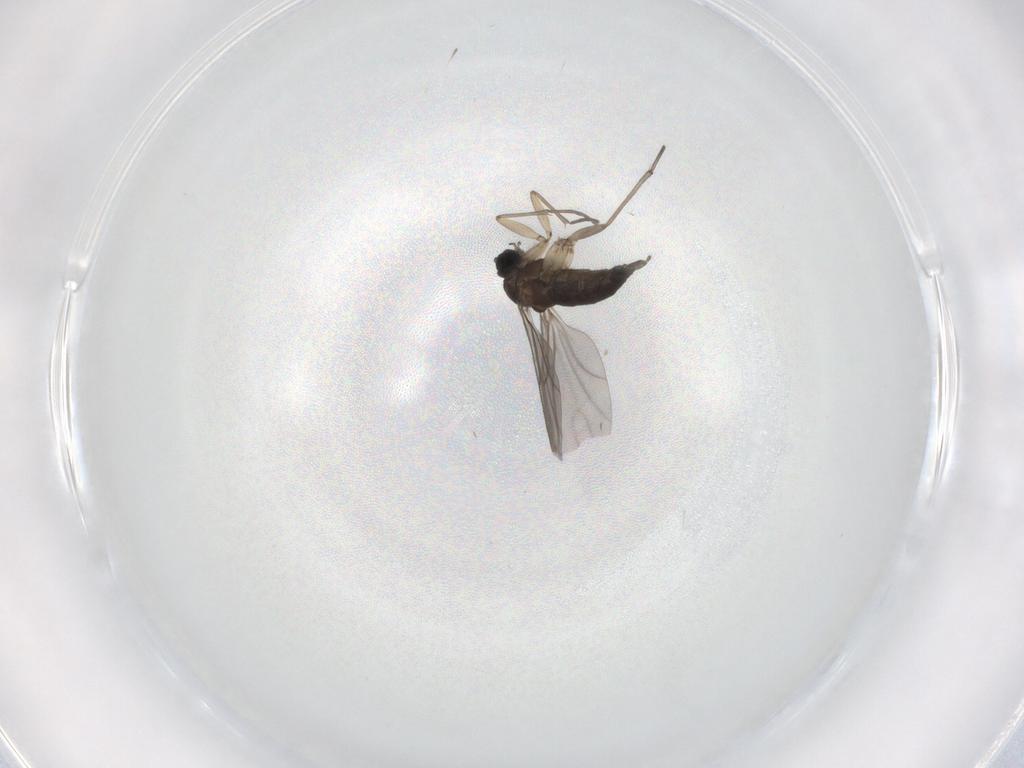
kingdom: Animalia
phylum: Arthropoda
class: Insecta
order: Diptera
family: Sciaridae
